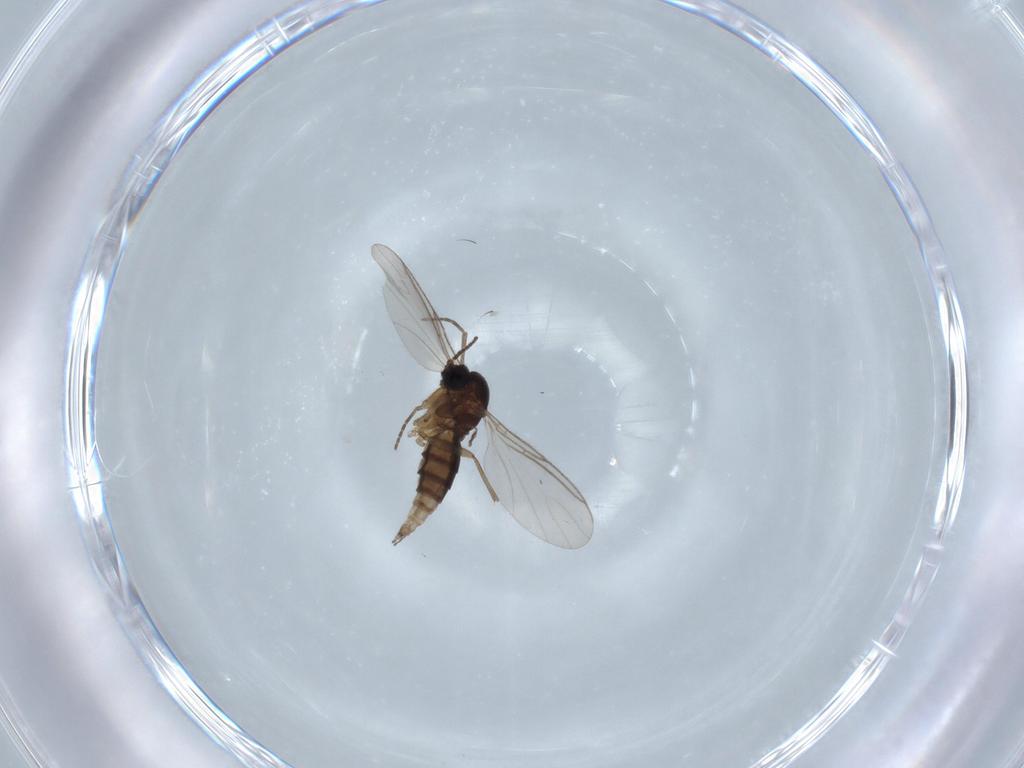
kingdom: Animalia
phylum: Arthropoda
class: Insecta
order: Diptera
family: Sciaridae
